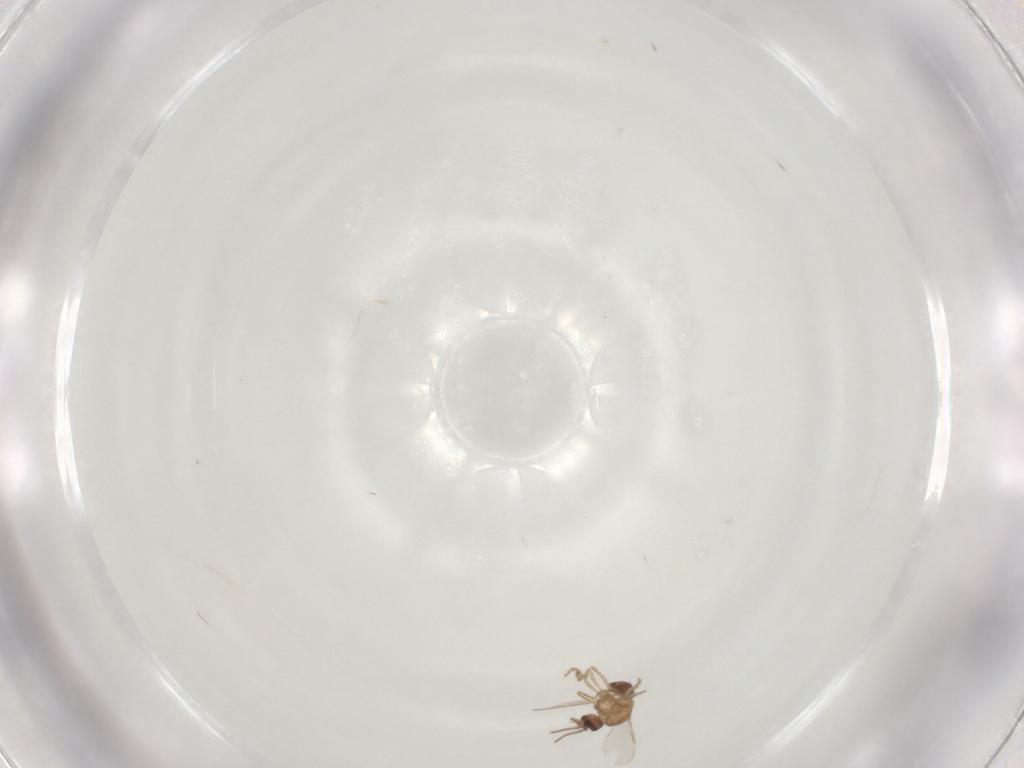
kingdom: Animalia
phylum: Arthropoda
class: Insecta
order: Diptera
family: Ceratopogonidae
